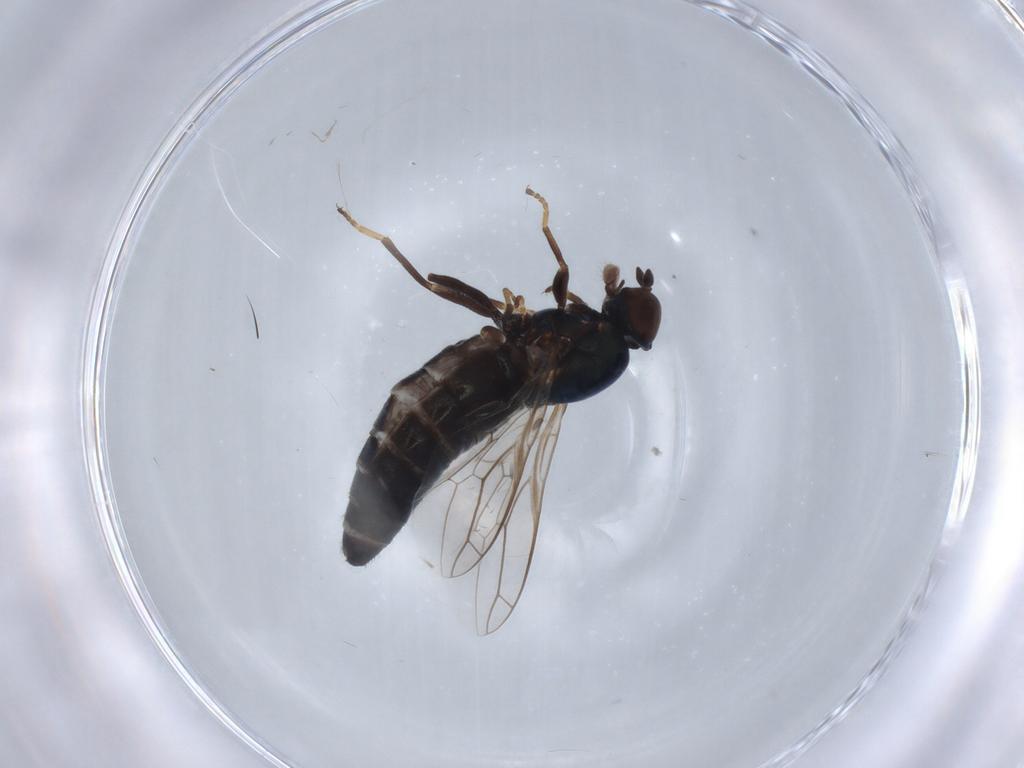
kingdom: Animalia
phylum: Arthropoda
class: Insecta
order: Diptera
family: Scenopinidae
